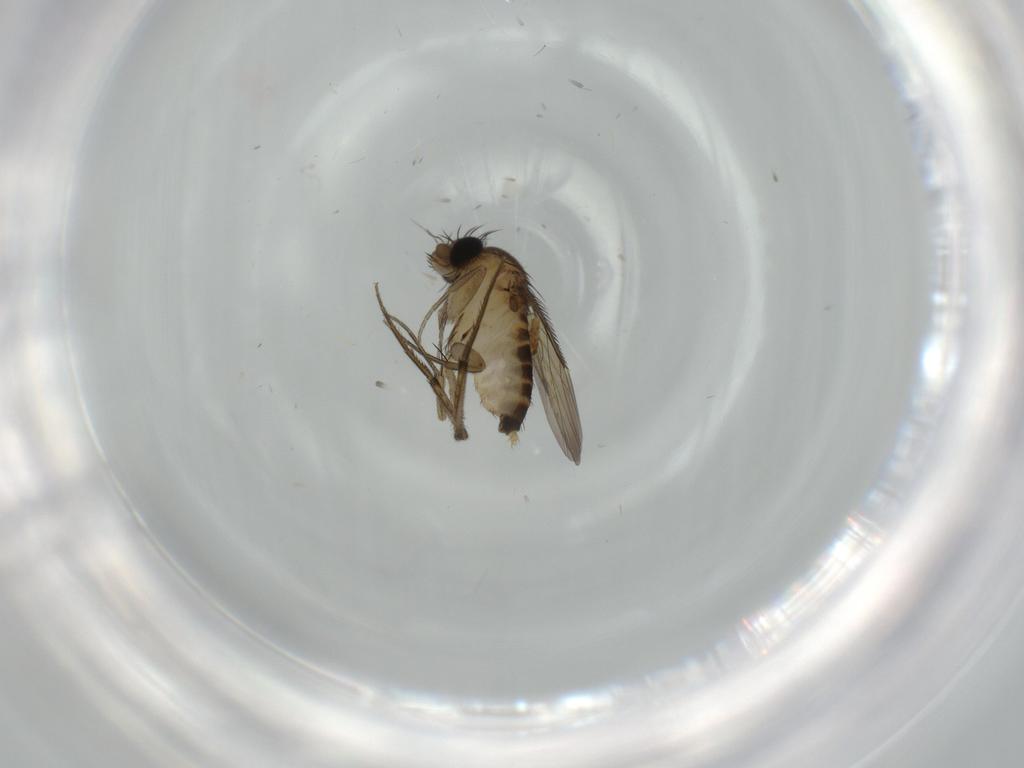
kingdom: Animalia
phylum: Arthropoda
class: Insecta
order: Diptera
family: Phoridae
